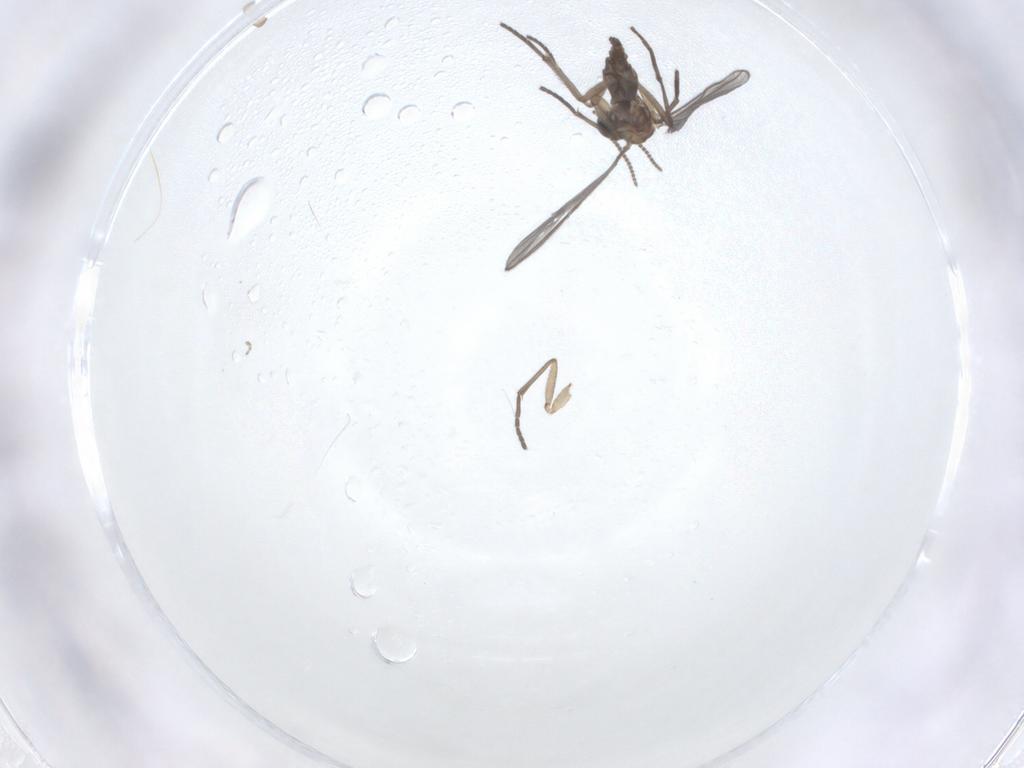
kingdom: Animalia
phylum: Arthropoda
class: Insecta
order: Diptera
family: Sciaridae
